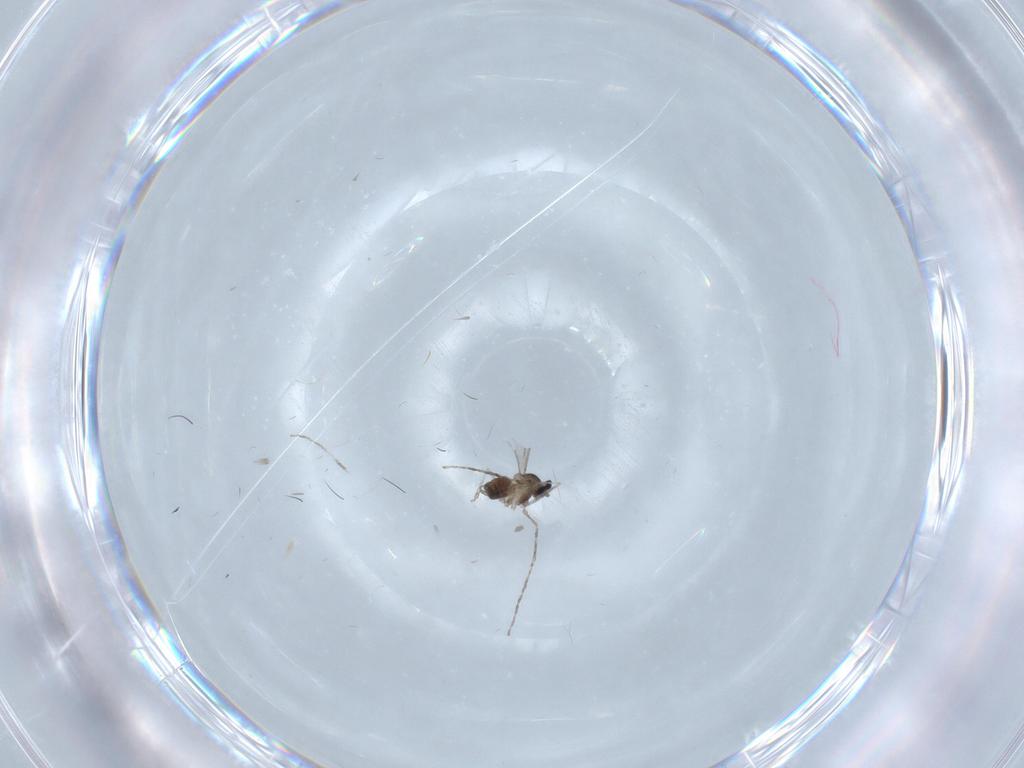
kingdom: Animalia
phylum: Arthropoda
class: Insecta
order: Diptera
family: Cecidomyiidae
